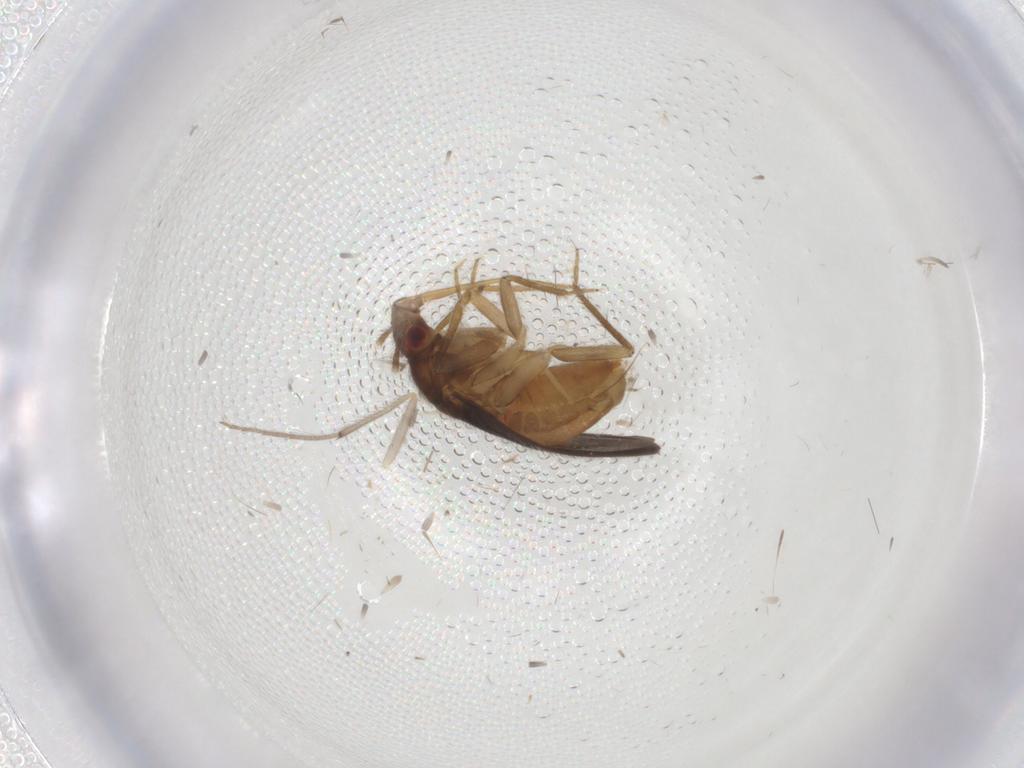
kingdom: Animalia
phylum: Arthropoda
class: Insecta
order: Hemiptera
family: Ceratocombidae
